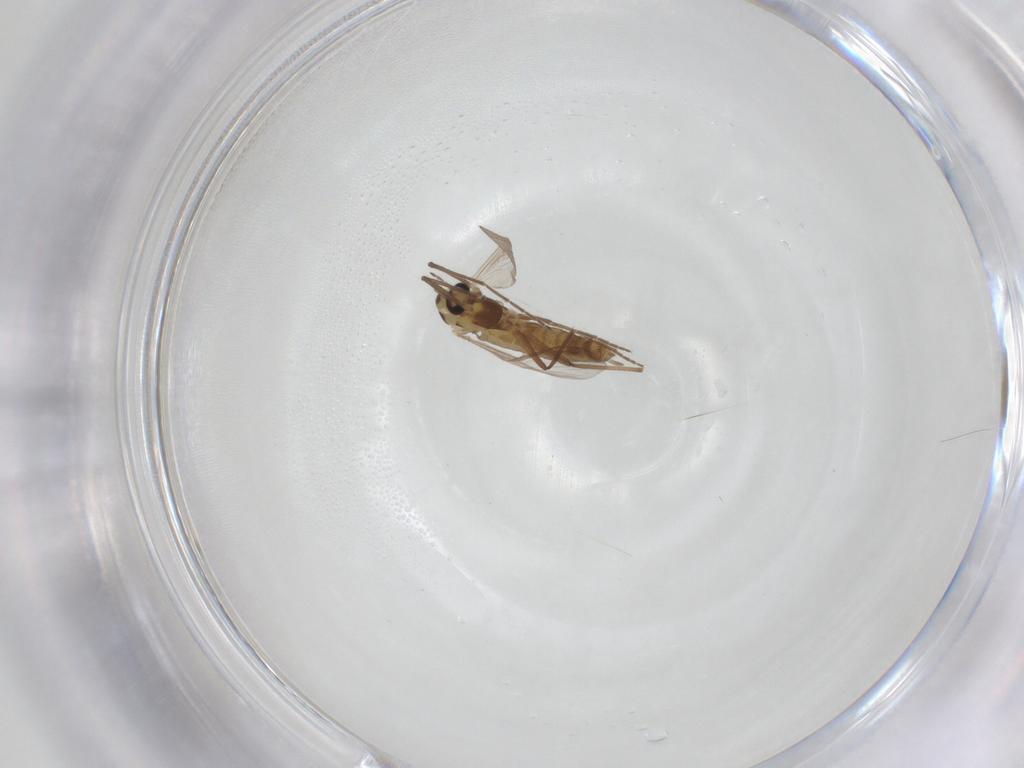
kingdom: Animalia
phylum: Arthropoda
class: Insecta
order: Diptera
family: Chironomidae
